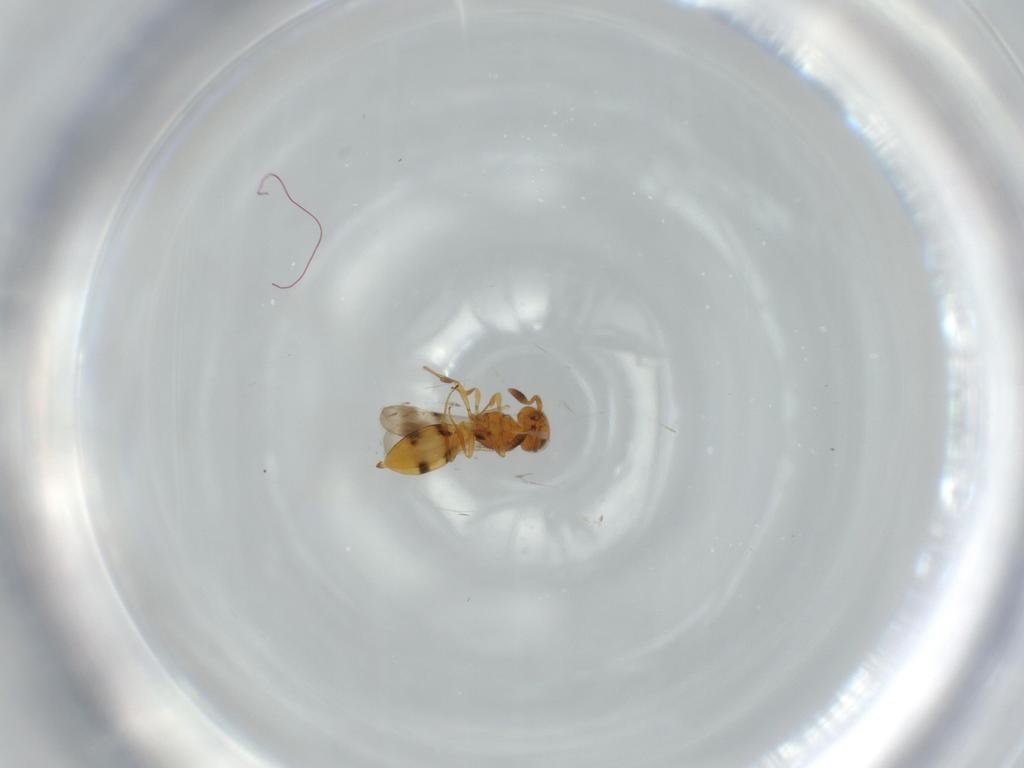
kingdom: Animalia
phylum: Arthropoda
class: Insecta
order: Hymenoptera
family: Scelionidae
